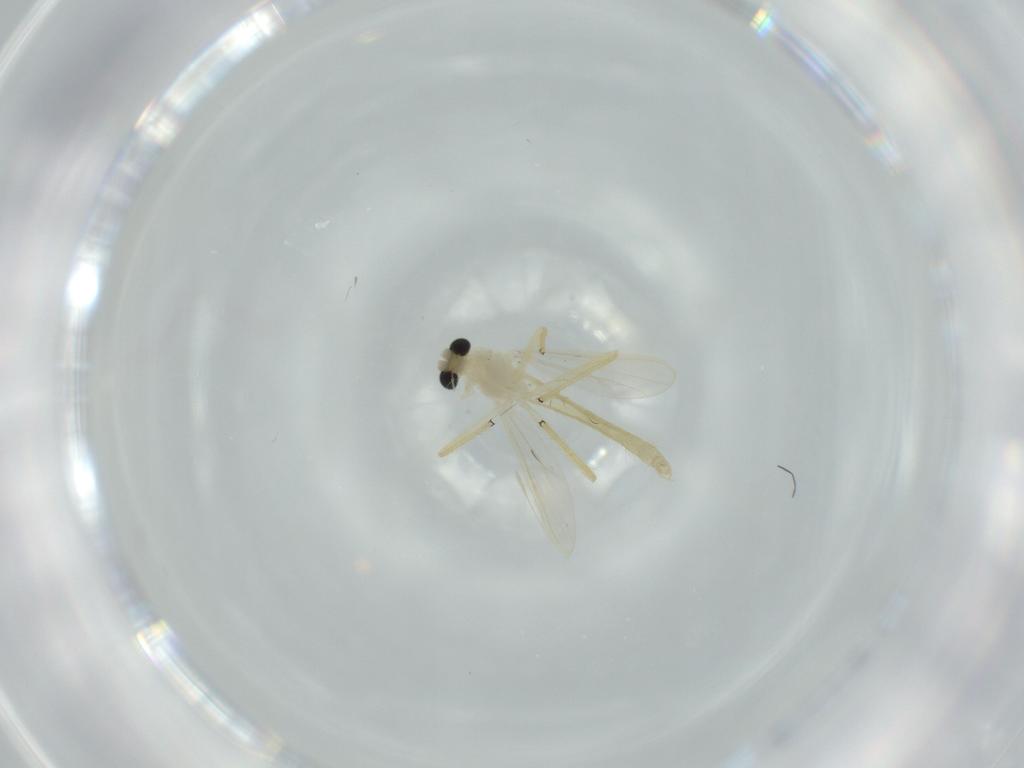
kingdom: Animalia
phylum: Arthropoda
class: Insecta
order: Diptera
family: Chironomidae
